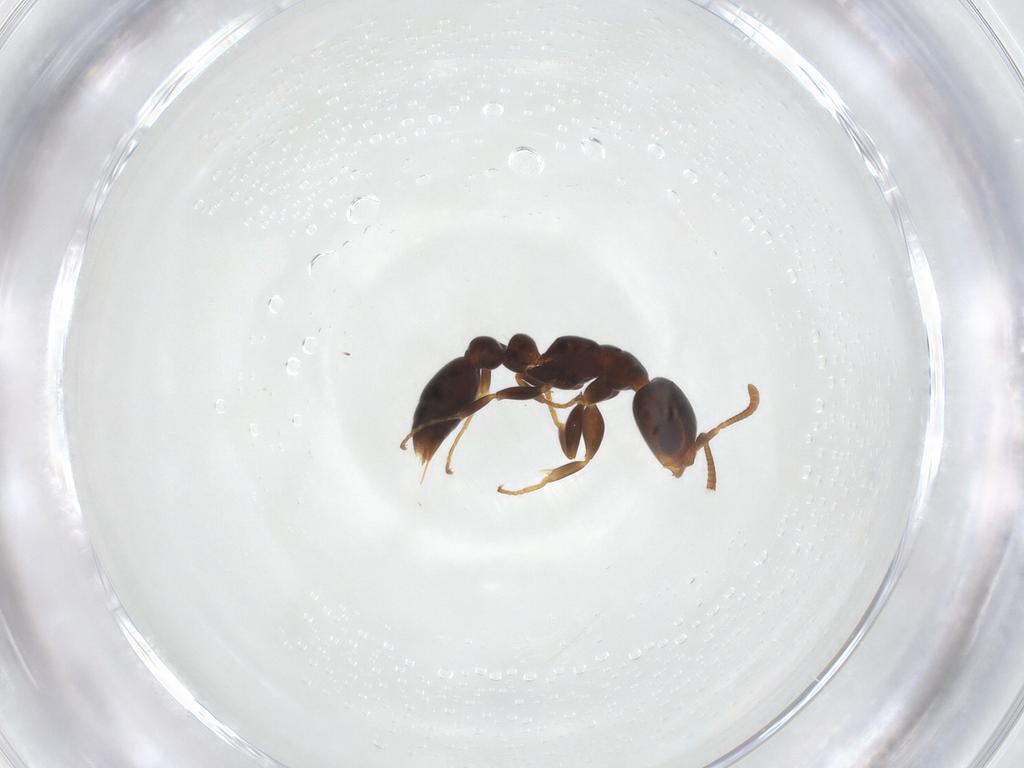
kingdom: Animalia
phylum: Arthropoda
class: Insecta
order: Hymenoptera
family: Formicidae
